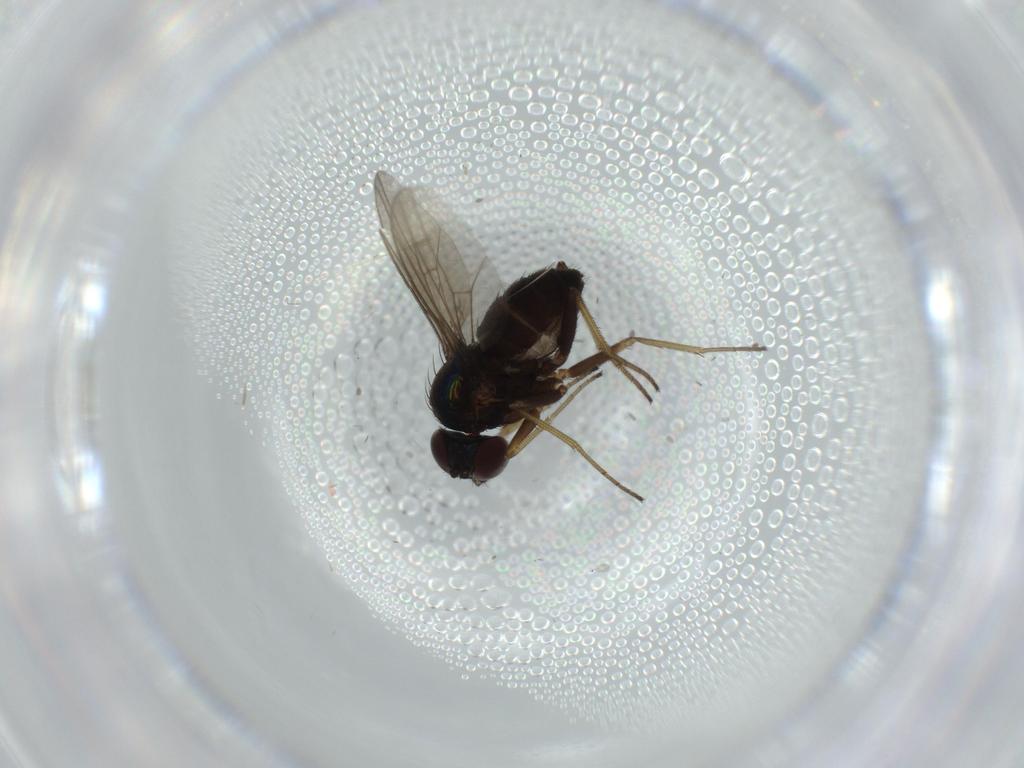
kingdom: Animalia
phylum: Arthropoda
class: Insecta
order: Diptera
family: Dolichopodidae
